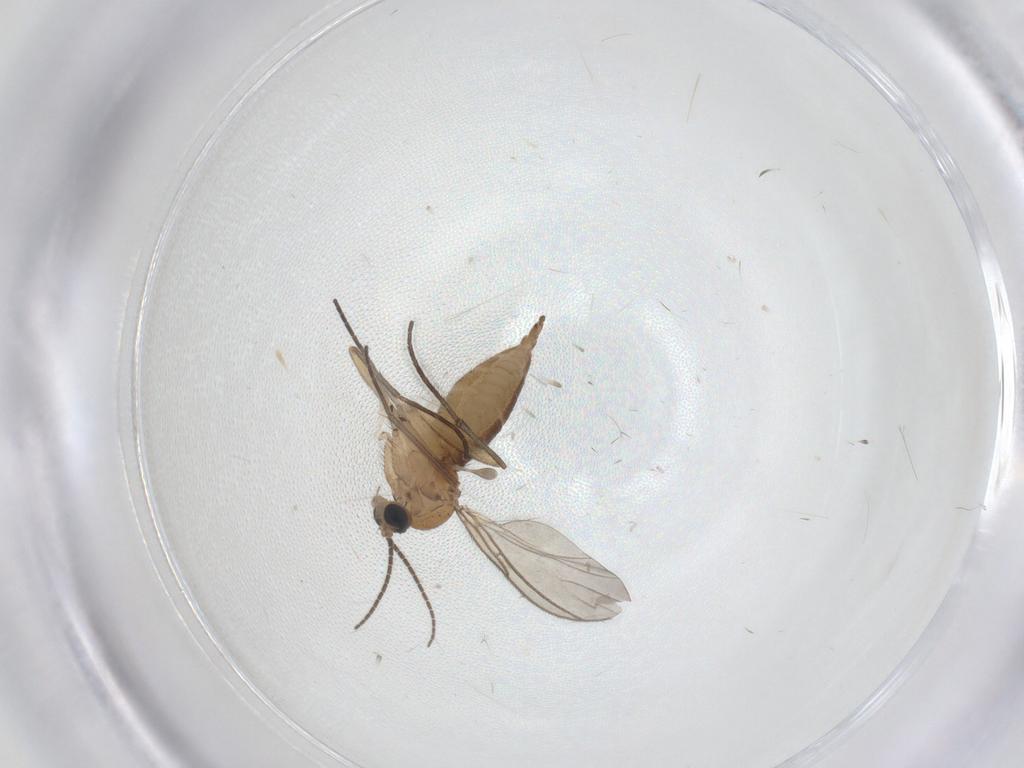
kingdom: Animalia
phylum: Arthropoda
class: Insecta
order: Diptera
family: Sciaridae
